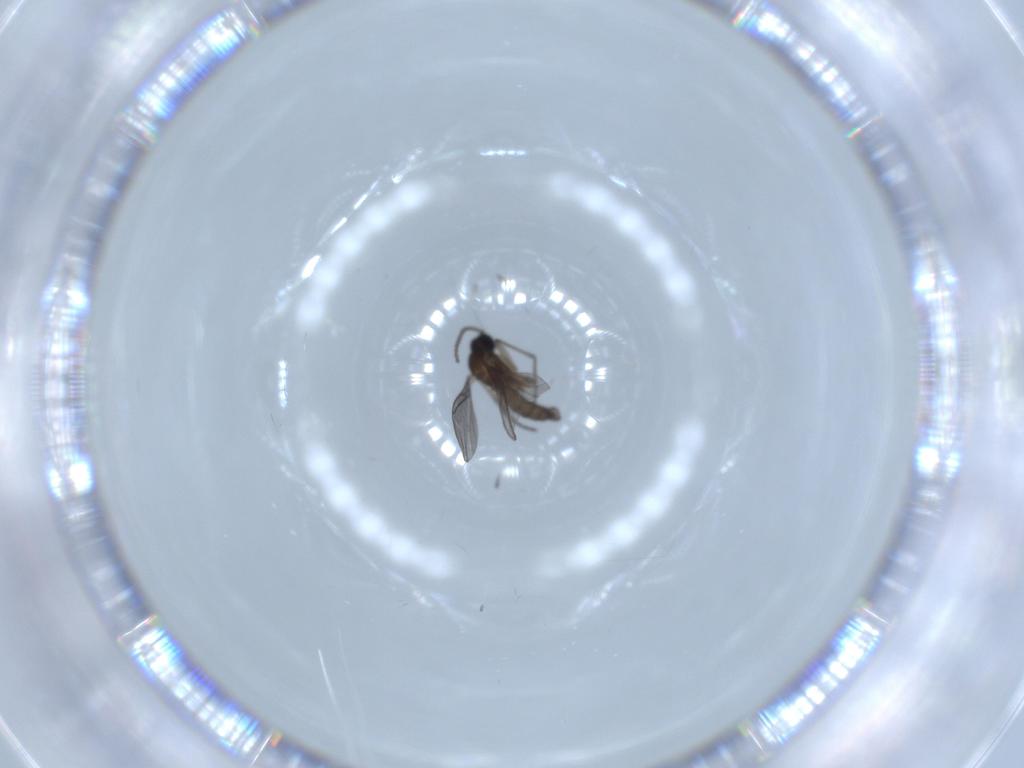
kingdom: Animalia
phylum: Arthropoda
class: Insecta
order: Diptera
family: Sciaridae
